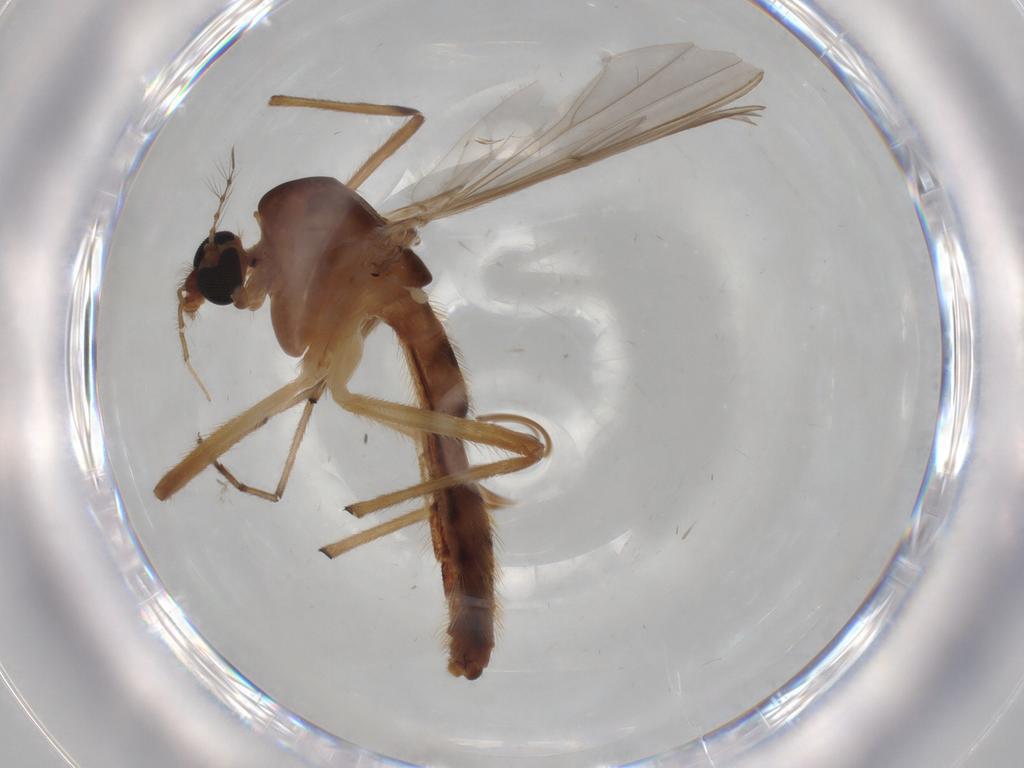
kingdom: Animalia
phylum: Arthropoda
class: Insecta
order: Diptera
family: Sciaridae
